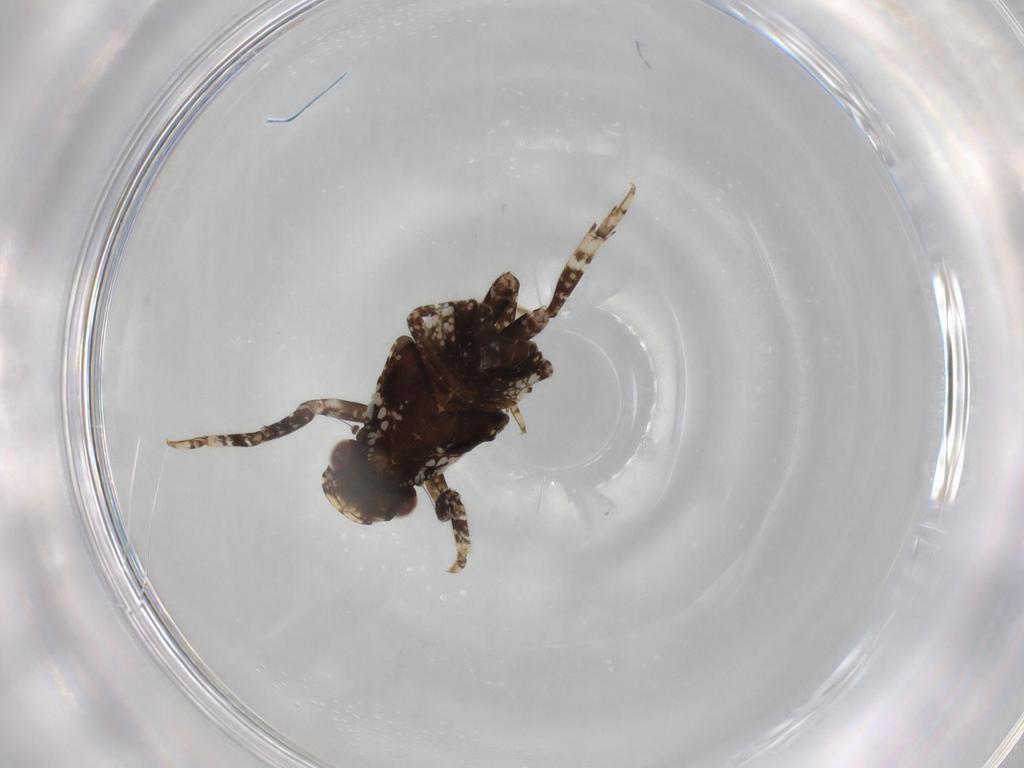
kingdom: Animalia
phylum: Arthropoda
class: Insecta
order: Hemiptera
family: Fulgoridae
